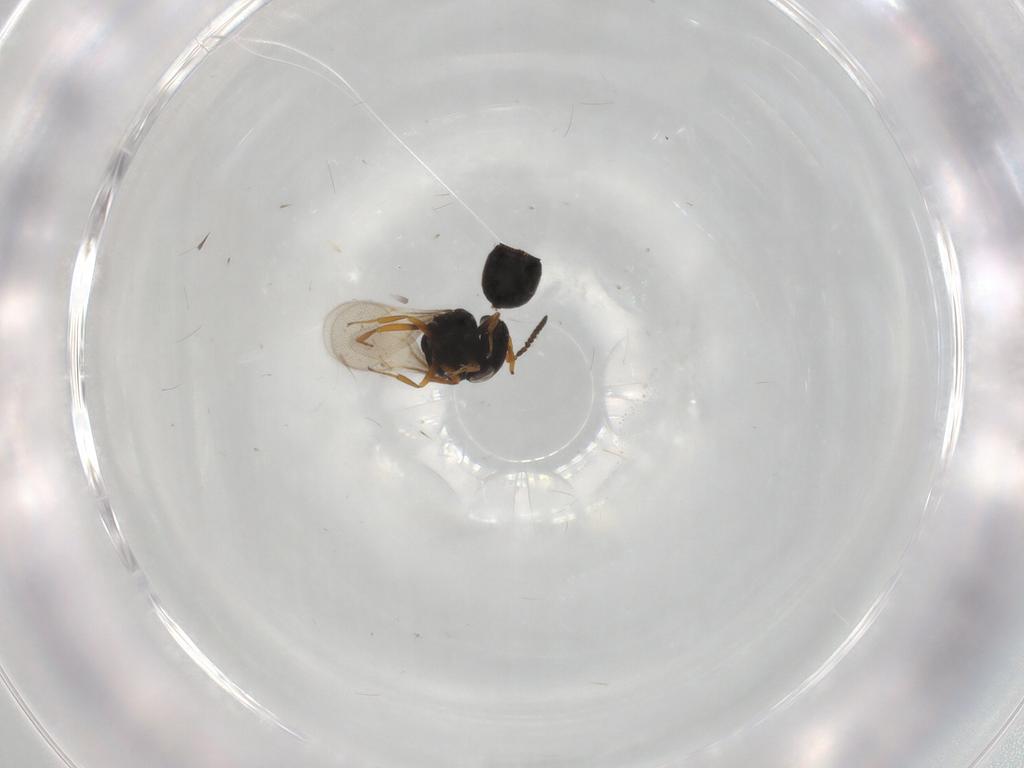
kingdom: Animalia
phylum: Arthropoda
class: Insecta
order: Hymenoptera
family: Scelionidae
